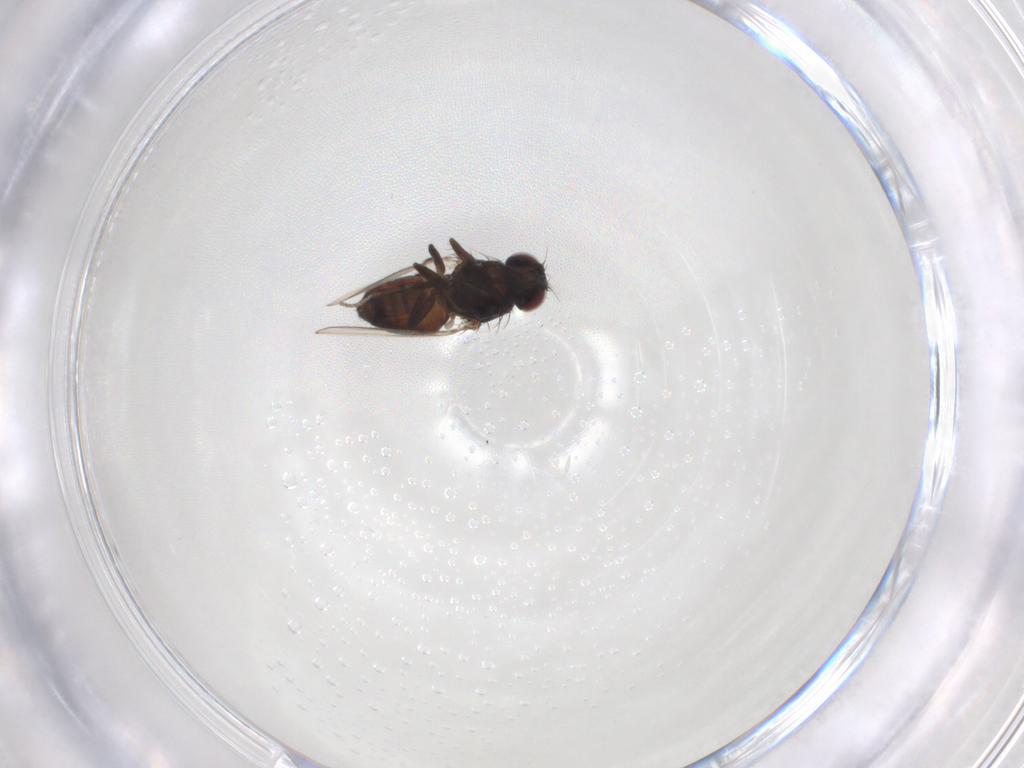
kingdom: Animalia
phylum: Arthropoda
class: Insecta
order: Diptera
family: Carnidae
